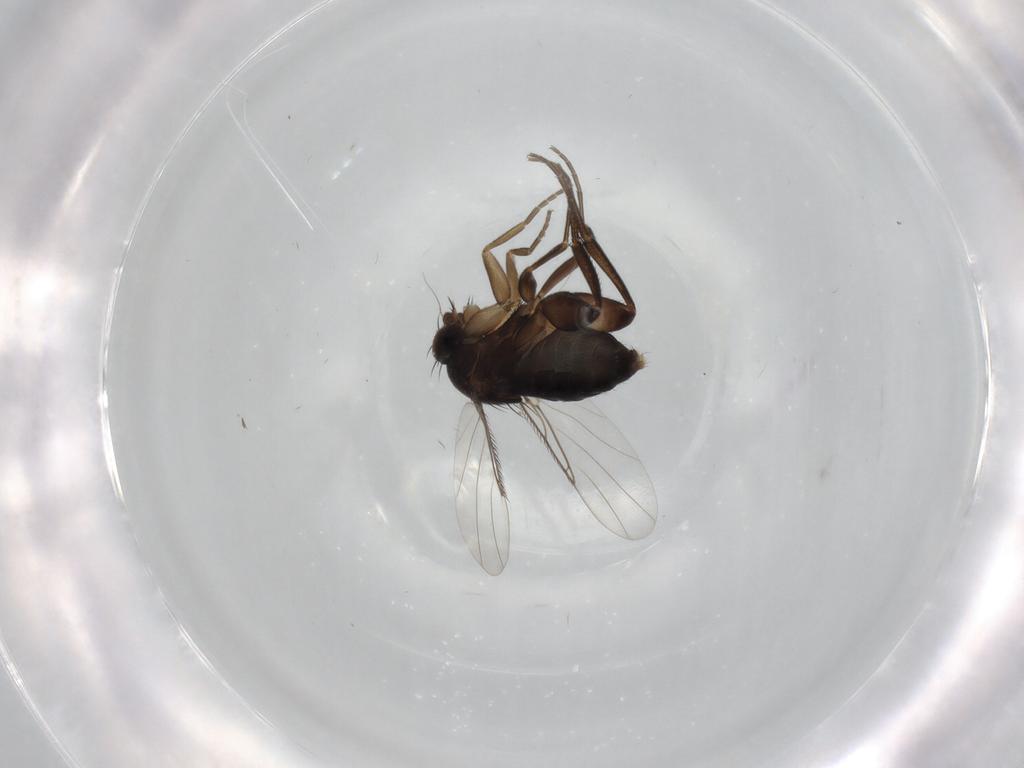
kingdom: Animalia
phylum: Arthropoda
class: Insecta
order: Diptera
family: Phoridae
